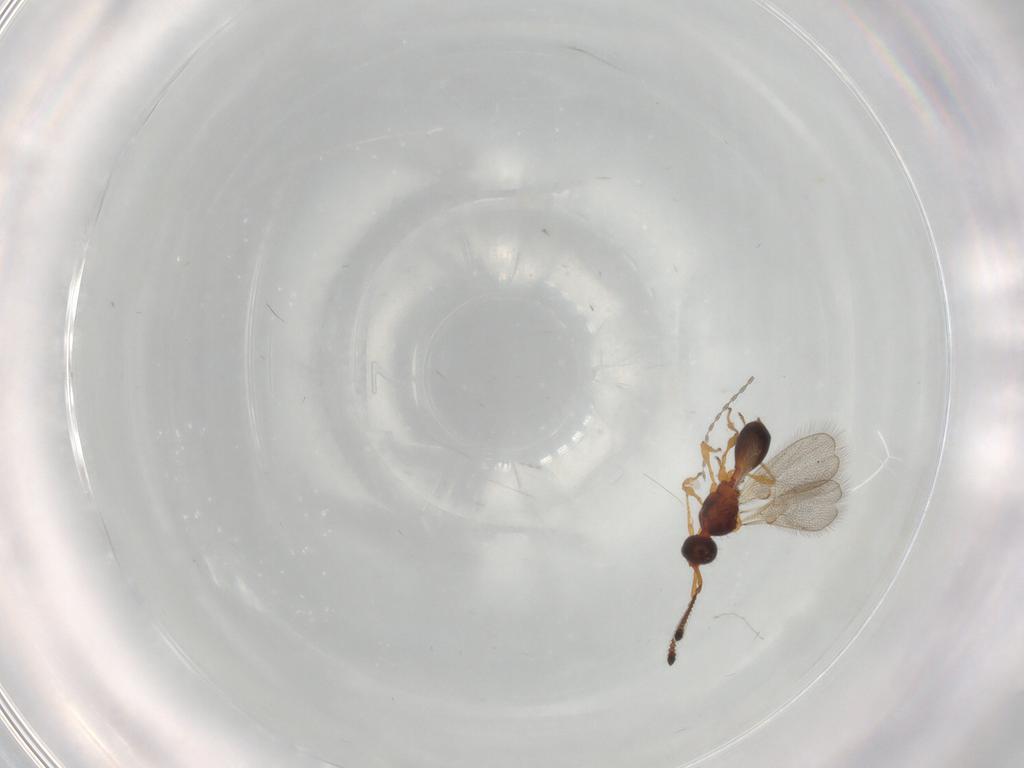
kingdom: Animalia
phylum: Arthropoda
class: Insecta
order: Hymenoptera
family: Diapriidae
